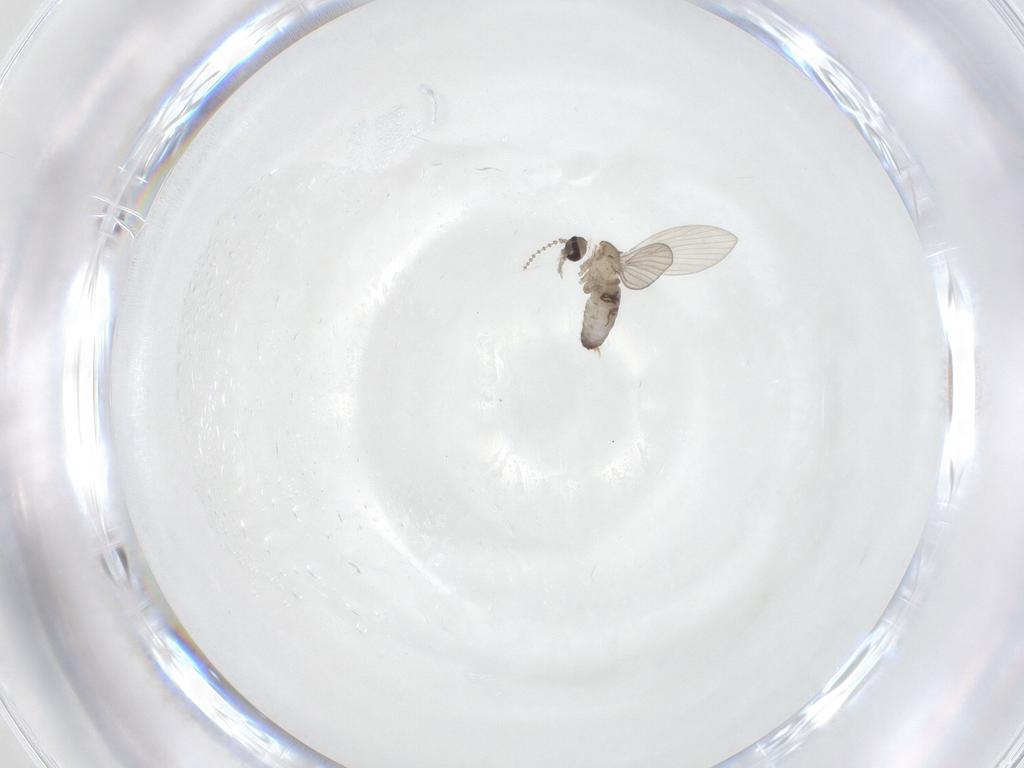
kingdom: Animalia
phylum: Arthropoda
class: Insecta
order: Diptera
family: Psychodidae
